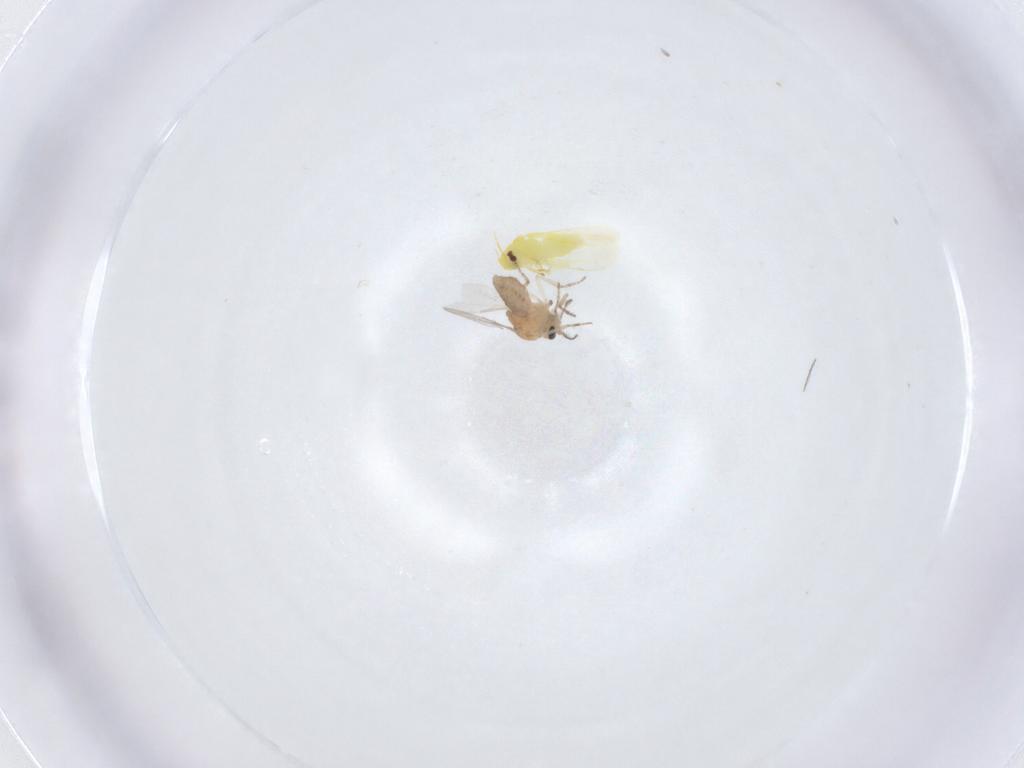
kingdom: Animalia
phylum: Arthropoda
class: Insecta
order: Diptera
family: Ceratopogonidae
